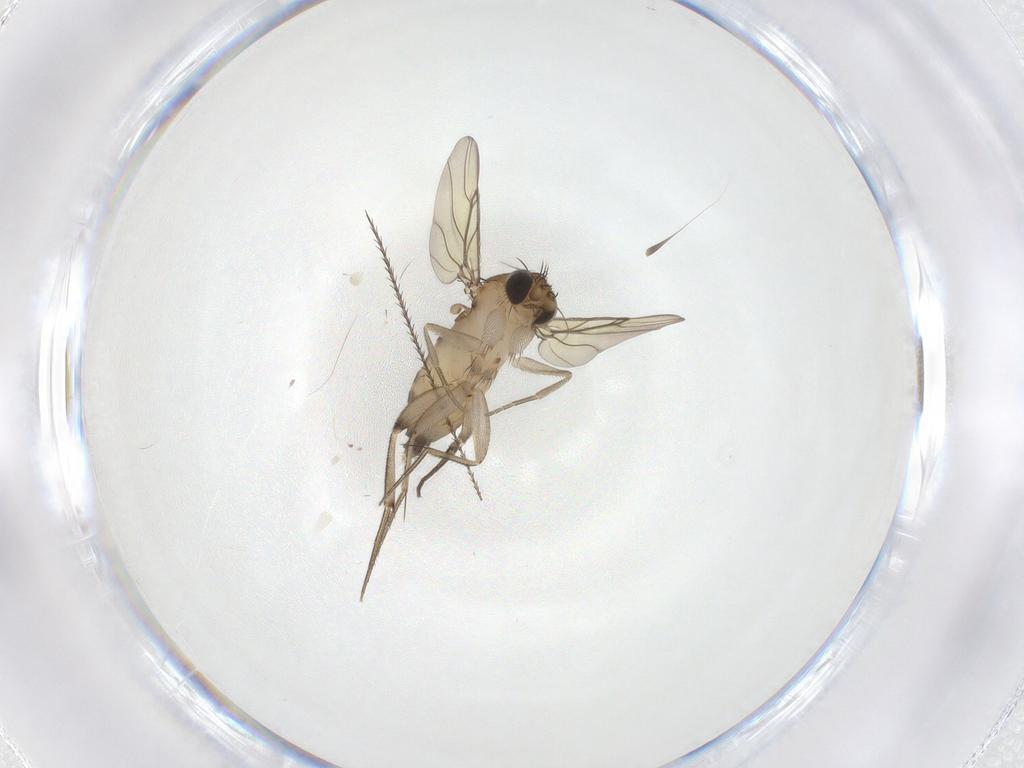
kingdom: Animalia
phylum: Arthropoda
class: Insecta
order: Diptera
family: Phoridae
